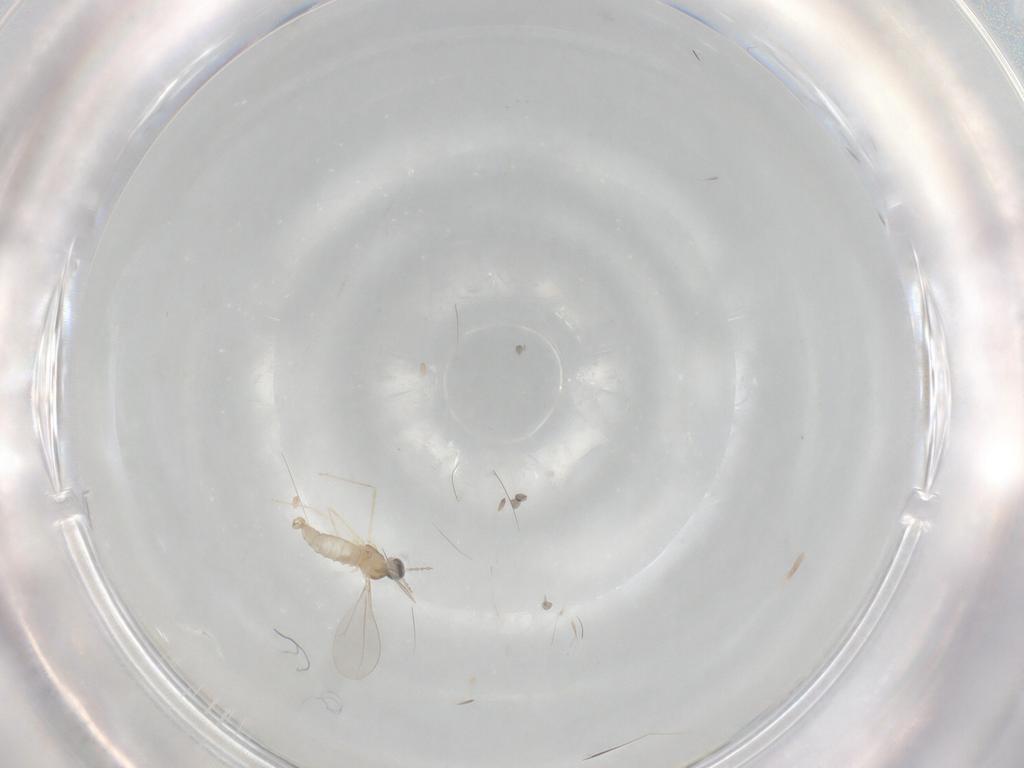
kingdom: Animalia
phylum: Arthropoda
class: Insecta
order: Diptera
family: Cecidomyiidae
